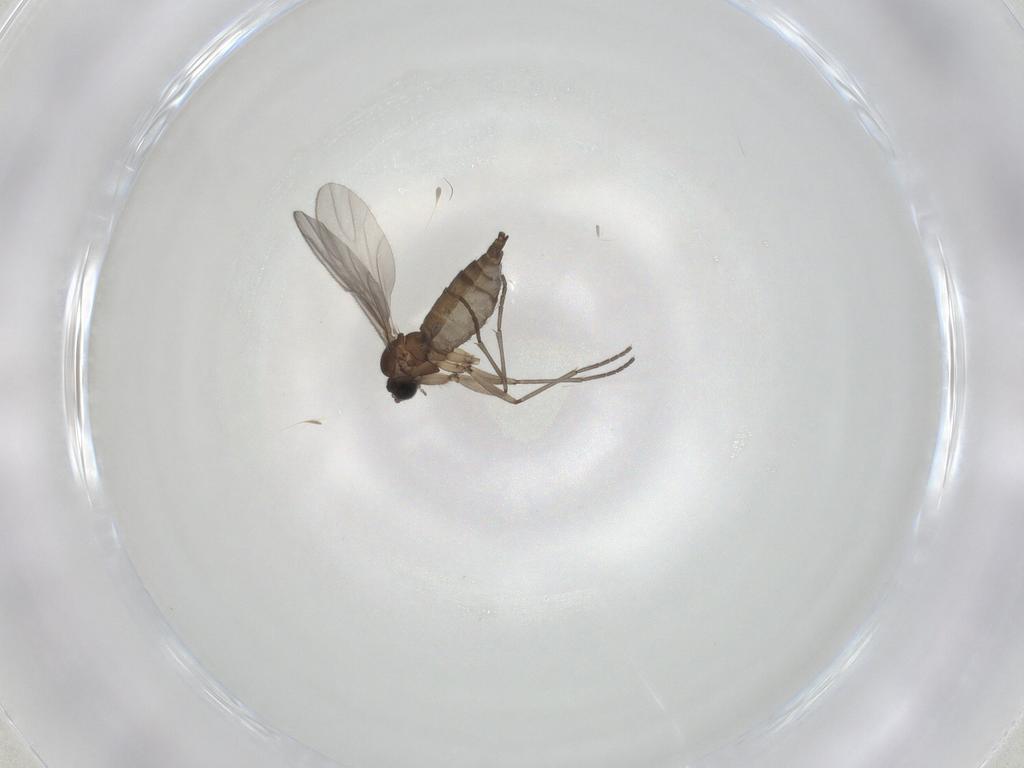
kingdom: Animalia
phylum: Arthropoda
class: Insecta
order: Diptera
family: Sciaridae
